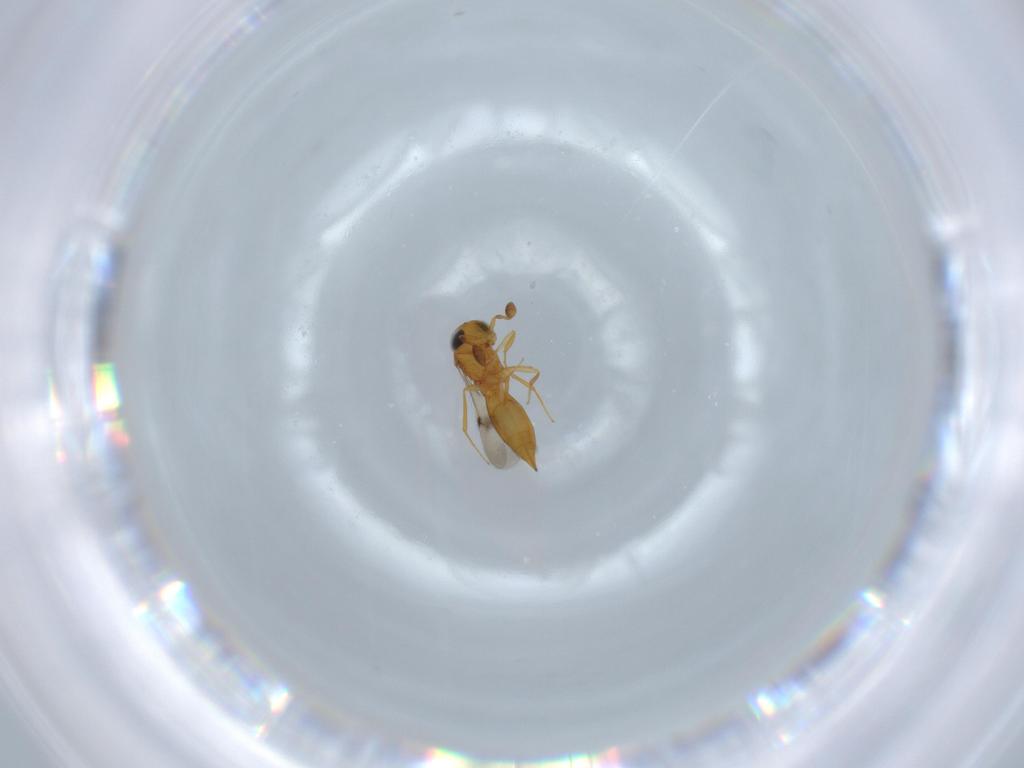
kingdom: Animalia
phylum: Arthropoda
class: Insecta
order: Hymenoptera
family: Scelionidae
